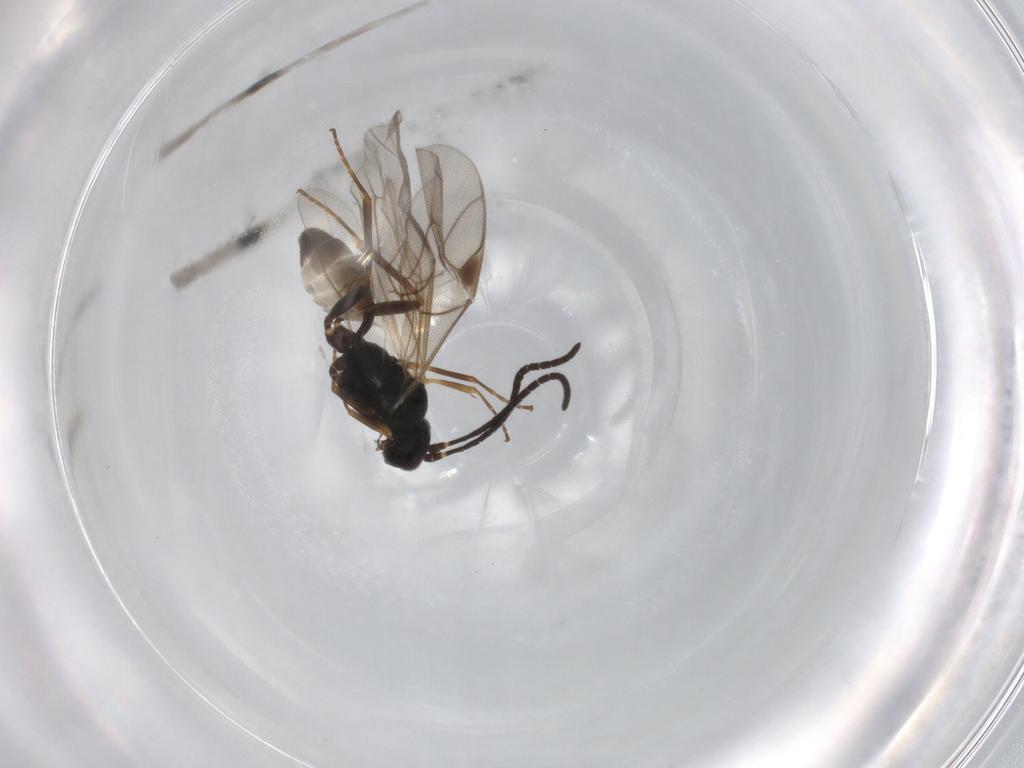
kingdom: Animalia
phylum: Arthropoda
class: Insecta
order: Hymenoptera
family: Ichneumonidae
